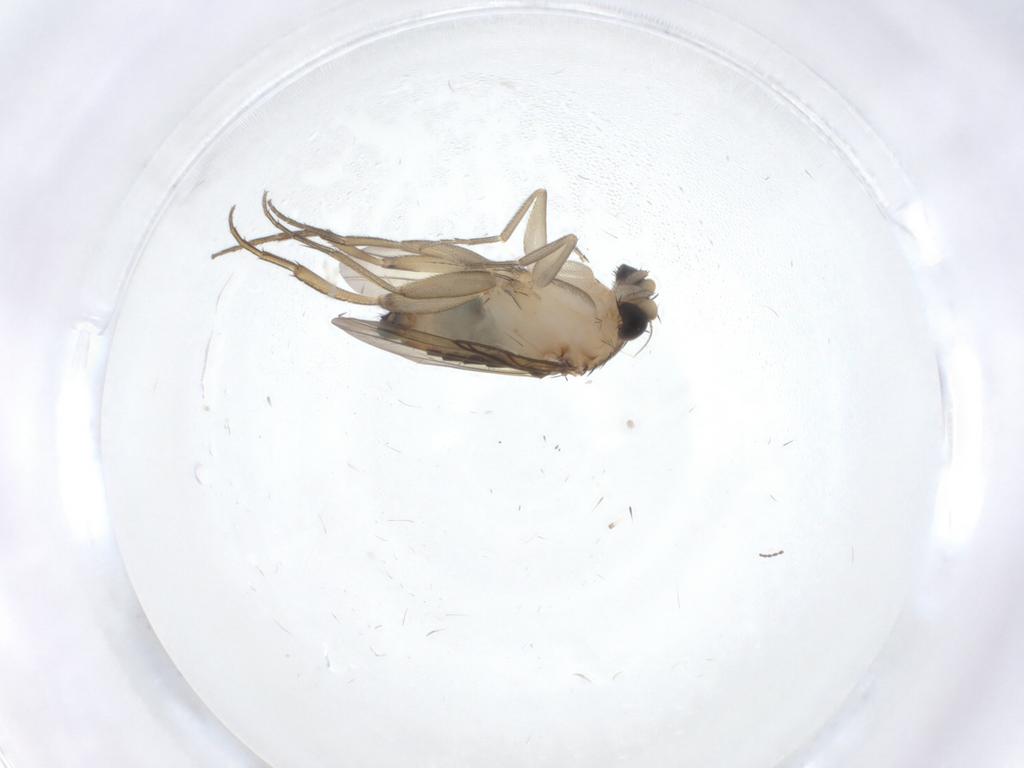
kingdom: Animalia
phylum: Arthropoda
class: Insecta
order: Diptera
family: Phoridae
